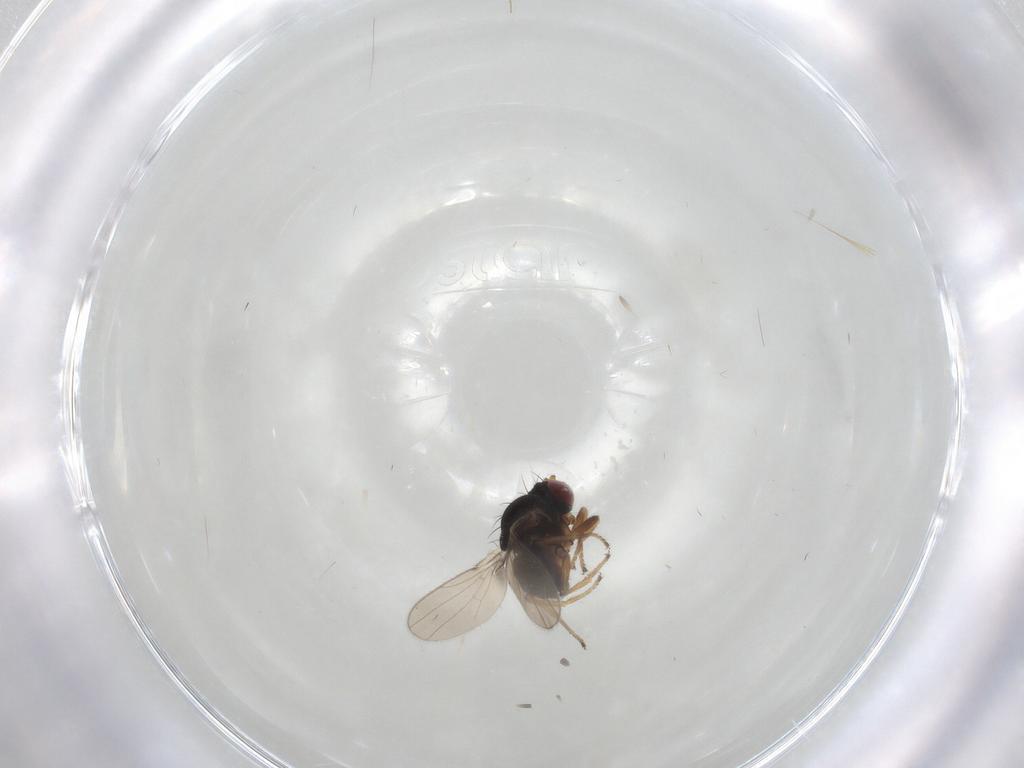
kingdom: Animalia
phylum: Arthropoda
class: Insecta
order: Diptera
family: Ephydridae
